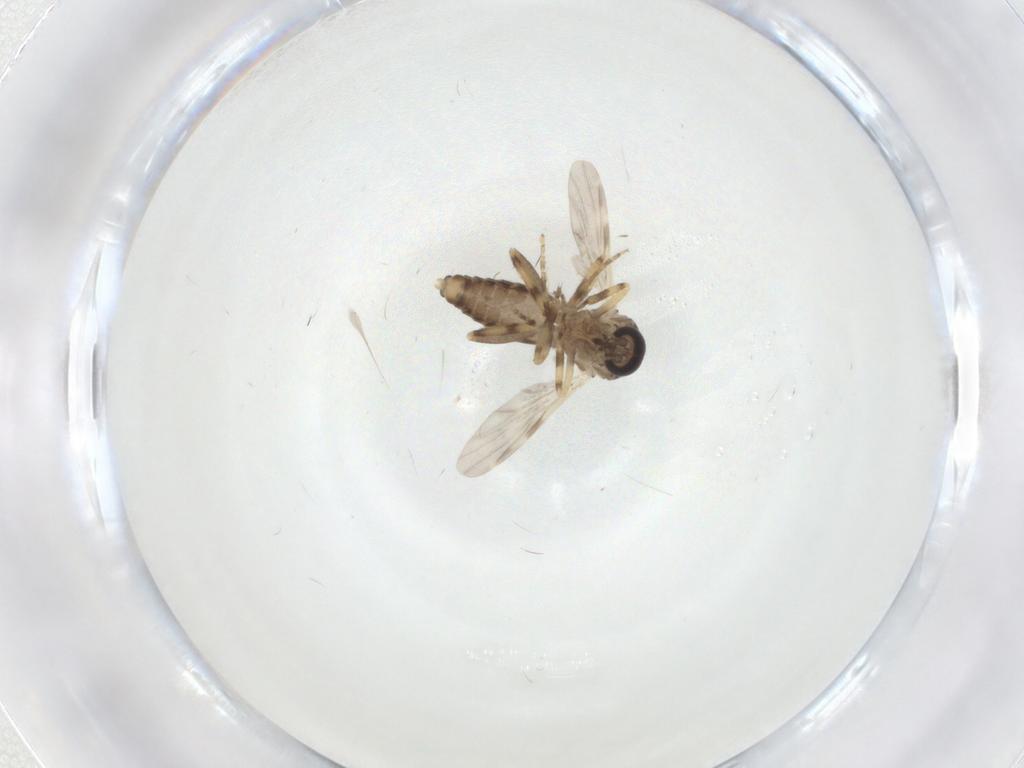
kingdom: Animalia
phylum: Arthropoda
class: Insecta
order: Diptera
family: Ceratopogonidae
